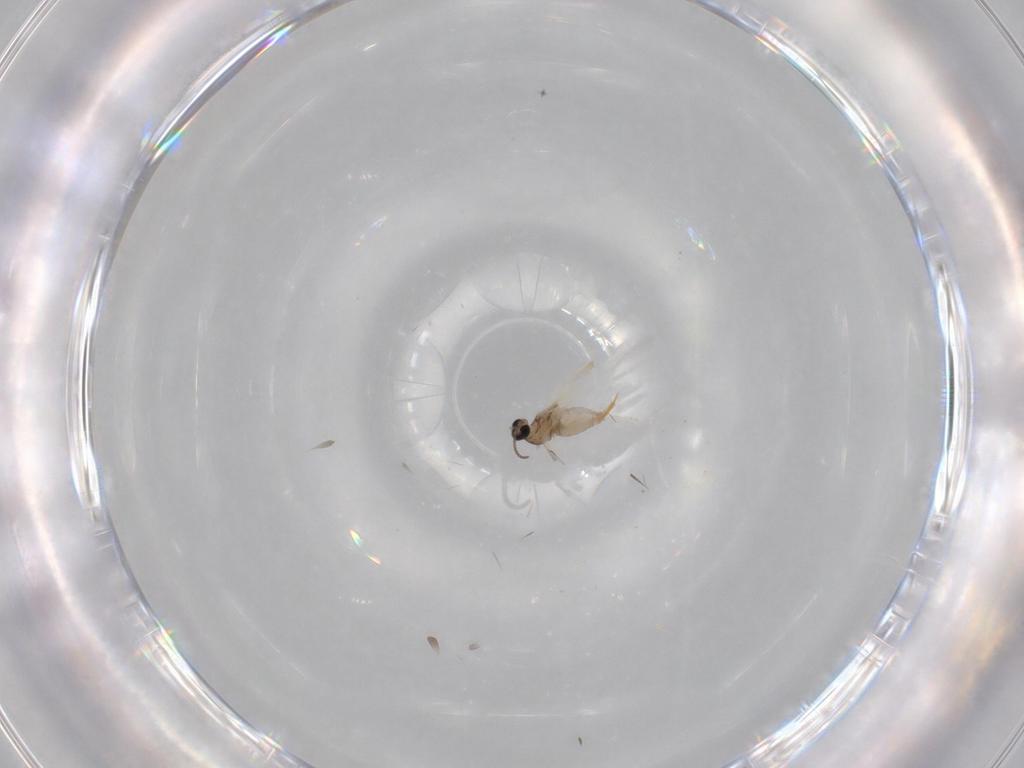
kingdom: Animalia
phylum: Arthropoda
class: Insecta
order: Diptera
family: Cecidomyiidae
